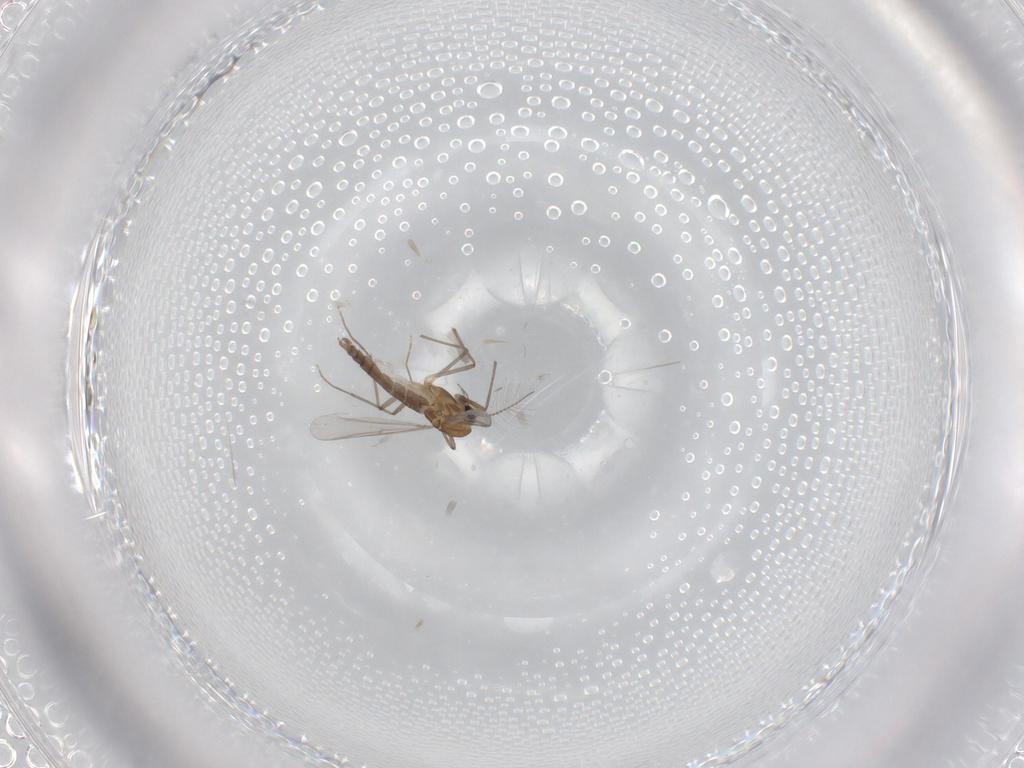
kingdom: Animalia
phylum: Arthropoda
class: Insecta
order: Diptera
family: Chironomidae
